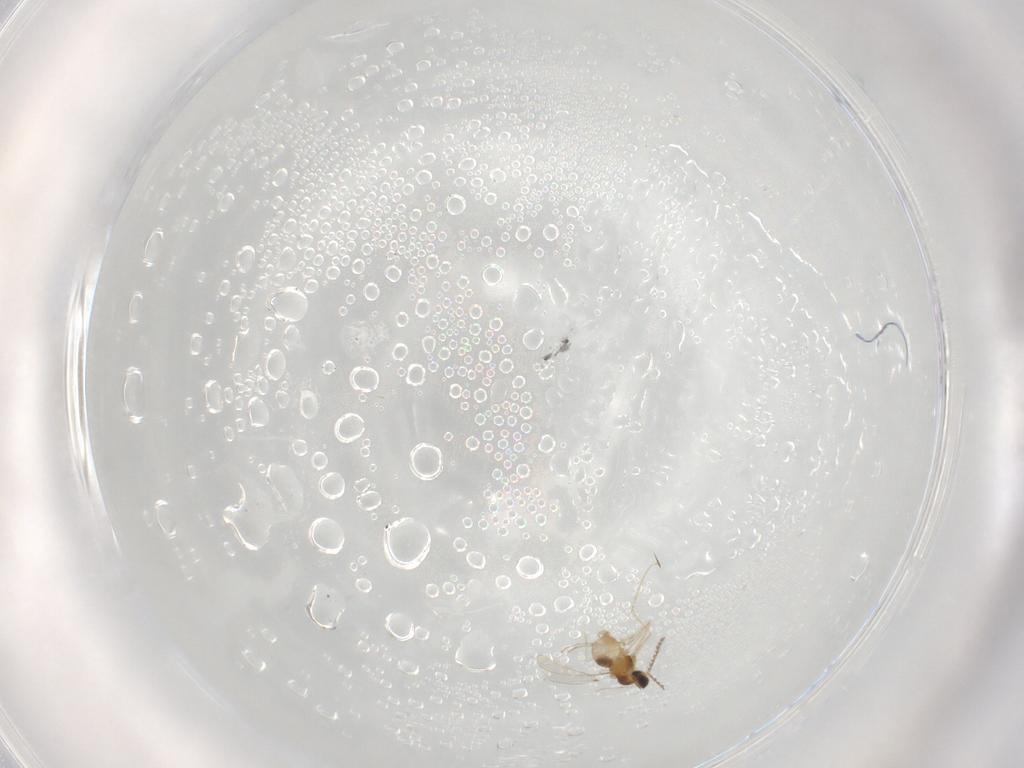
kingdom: Animalia
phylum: Arthropoda
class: Insecta
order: Diptera
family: Cecidomyiidae
